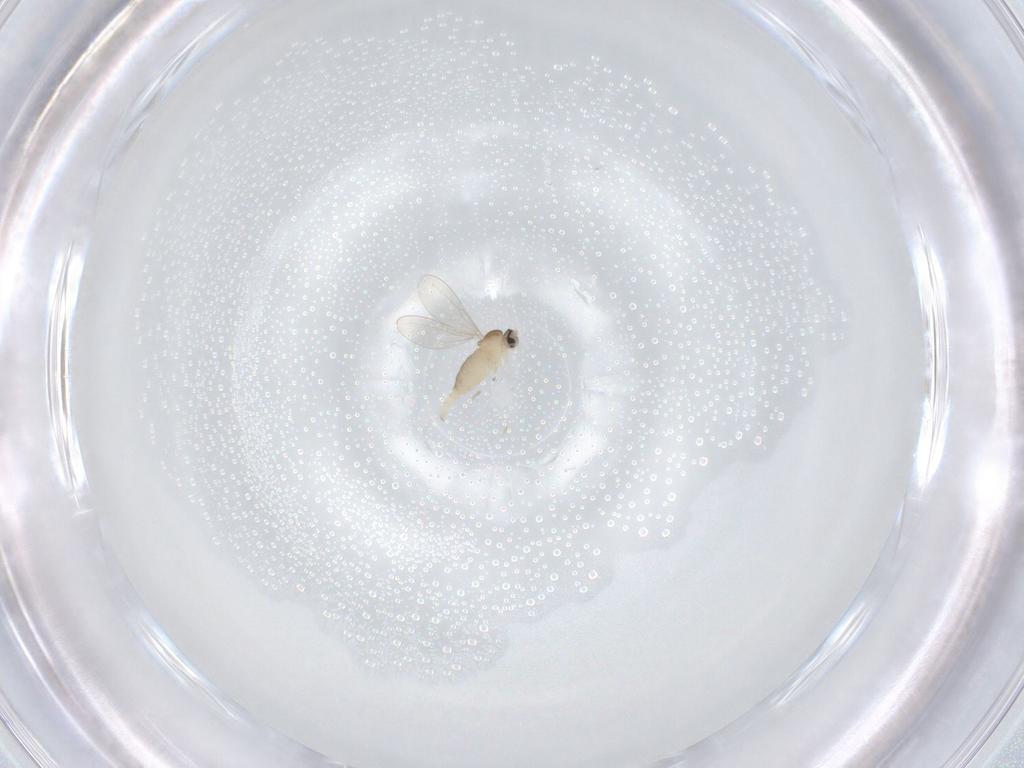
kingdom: Animalia
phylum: Arthropoda
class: Insecta
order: Diptera
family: Cecidomyiidae
